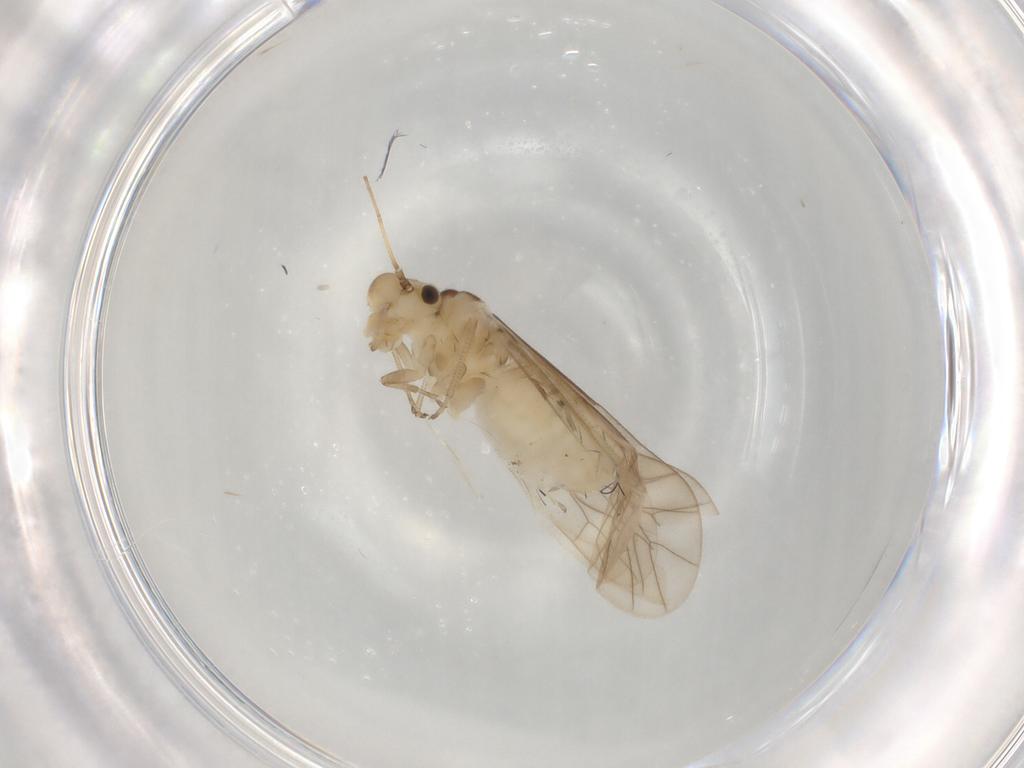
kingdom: Animalia
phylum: Arthropoda
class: Insecta
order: Psocodea
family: Caeciliusidae
